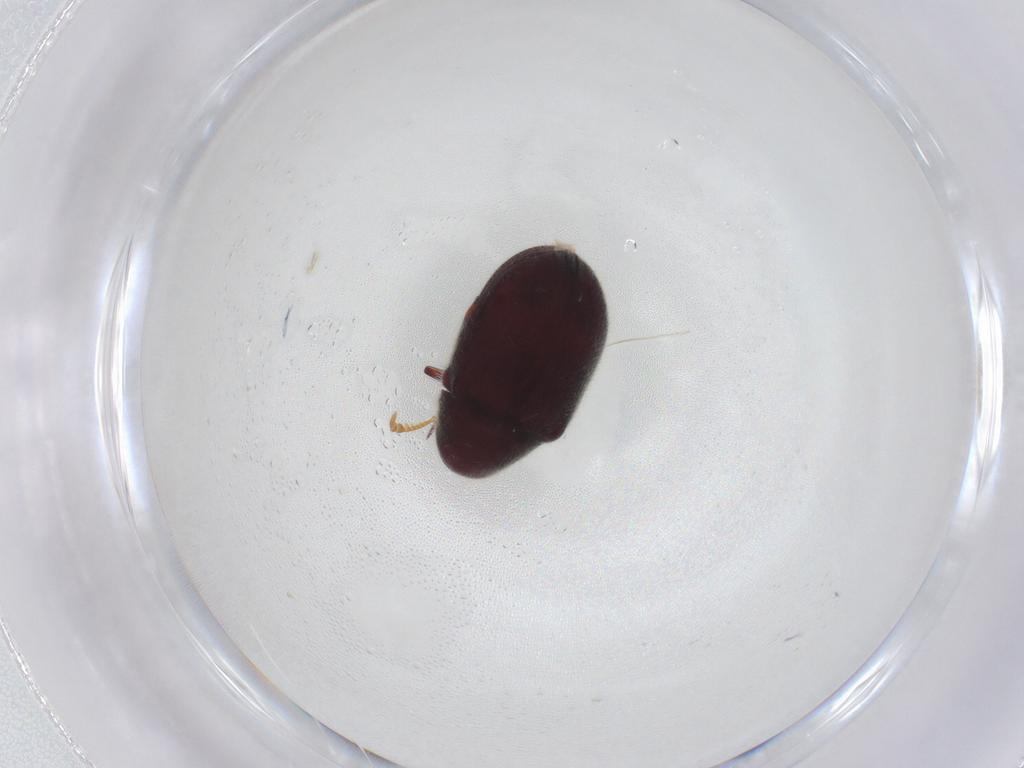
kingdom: Animalia
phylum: Arthropoda
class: Insecta
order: Coleoptera
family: Ptinidae
